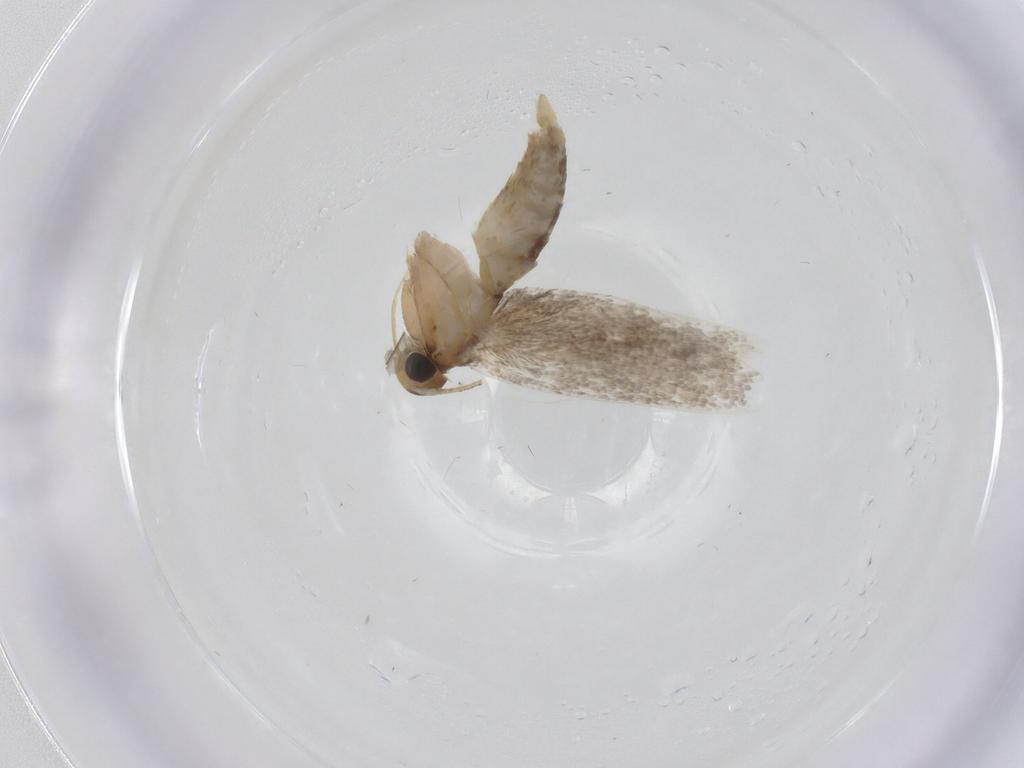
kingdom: Animalia
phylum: Arthropoda
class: Insecta
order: Lepidoptera
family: Oecophoridae
